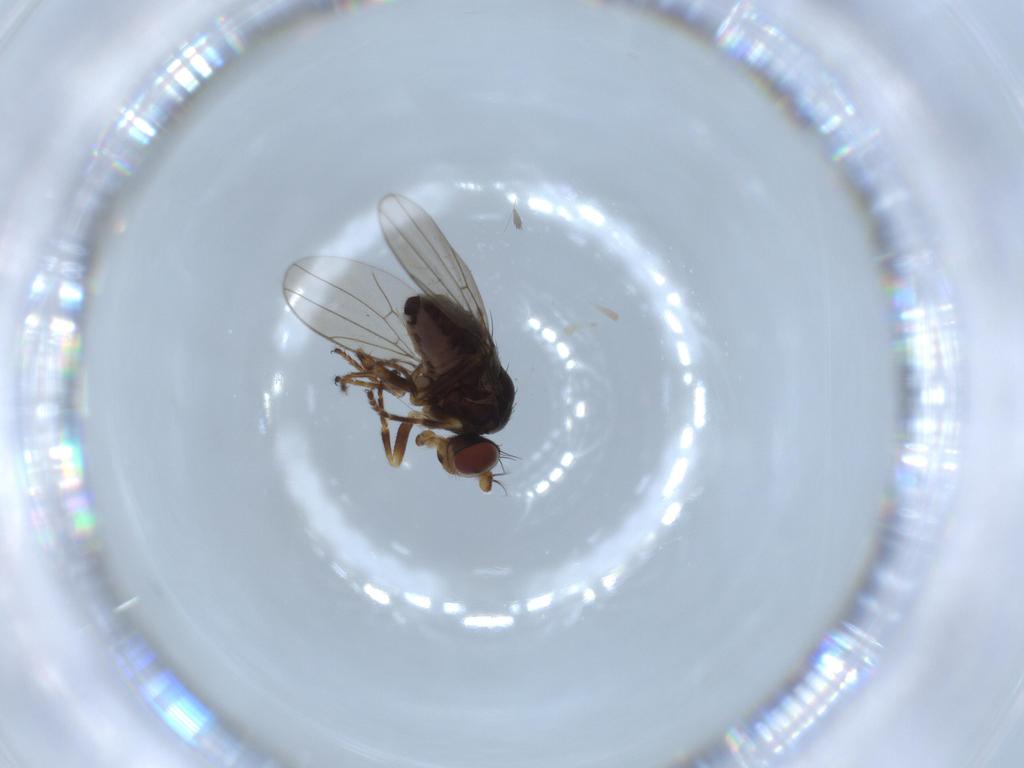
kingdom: Animalia
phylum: Arthropoda
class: Insecta
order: Diptera
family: Ephydridae
